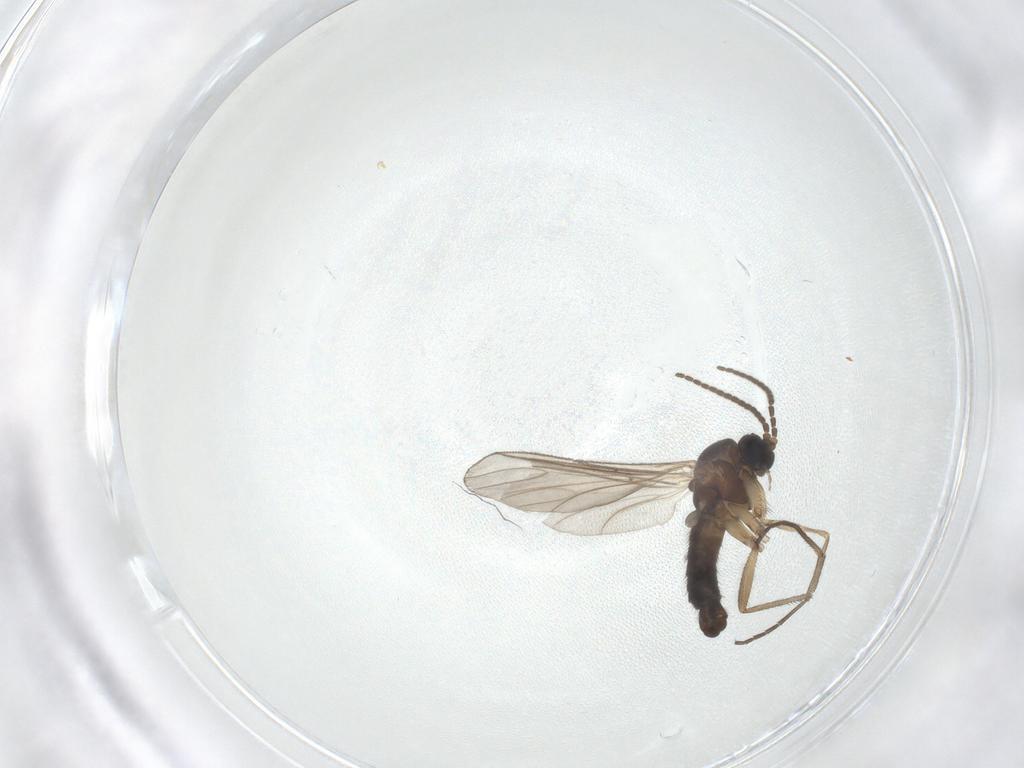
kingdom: Animalia
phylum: Arthropoda
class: Insecta
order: Diptera
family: Sciaridae
